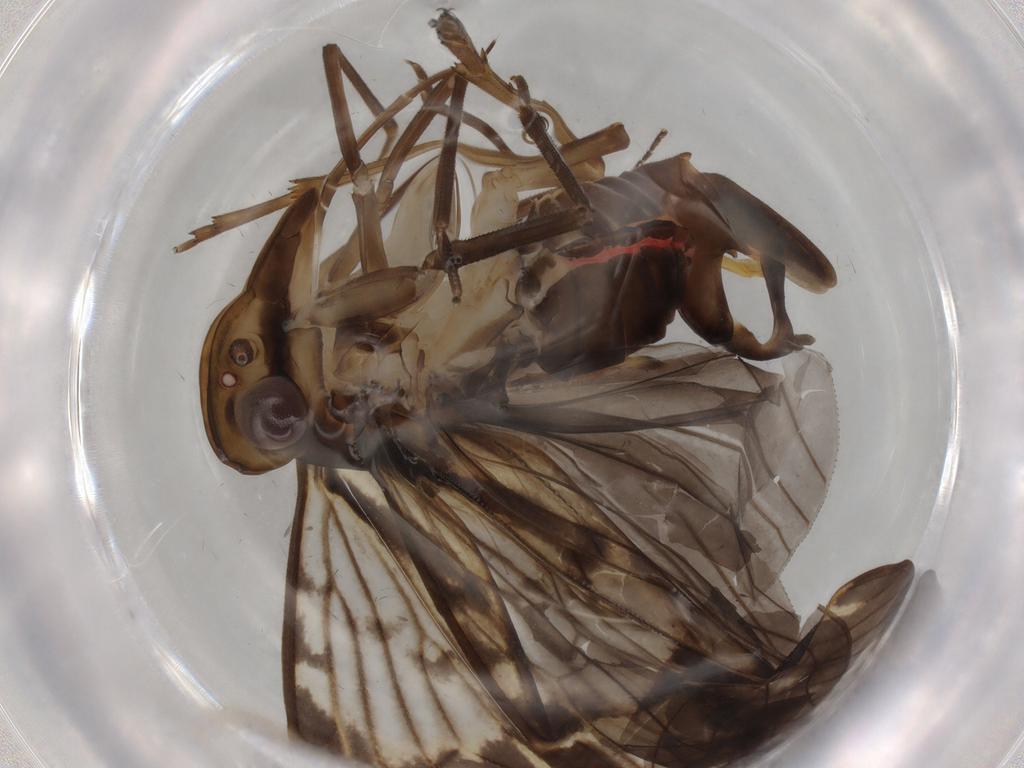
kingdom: Animalia
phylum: Arthropoda
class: Insecta
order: Hemiptera
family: Cixiidae
